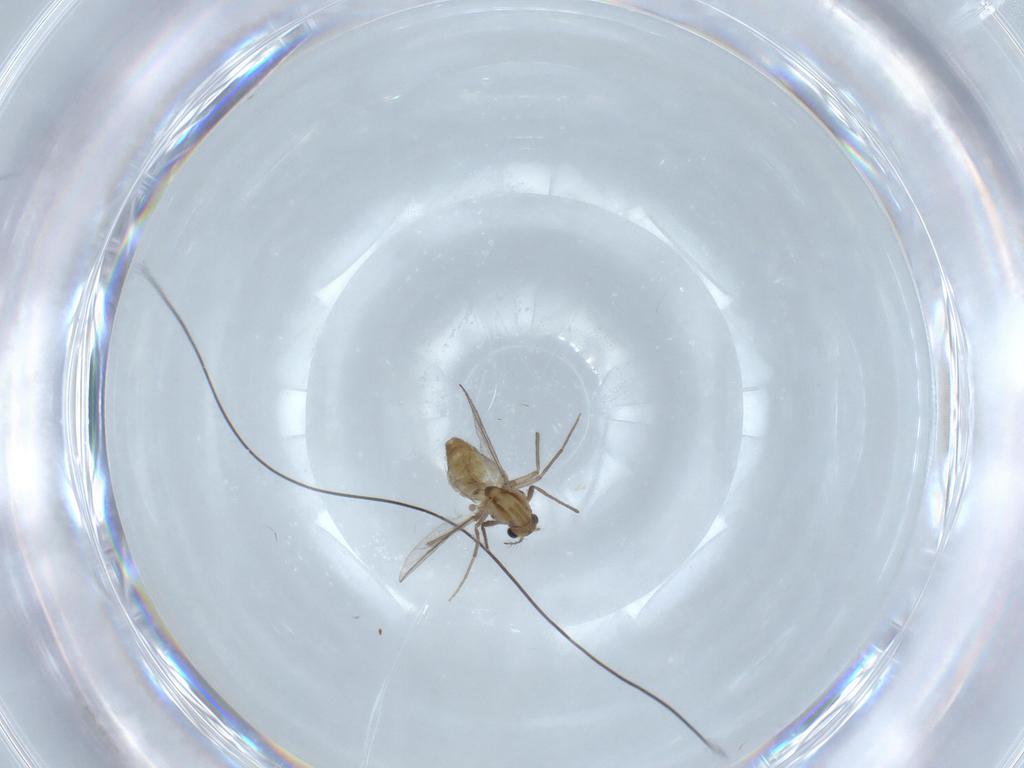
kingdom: Animalia
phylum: Arthropoda
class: Insecta
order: Diptera
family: Chironomidae
